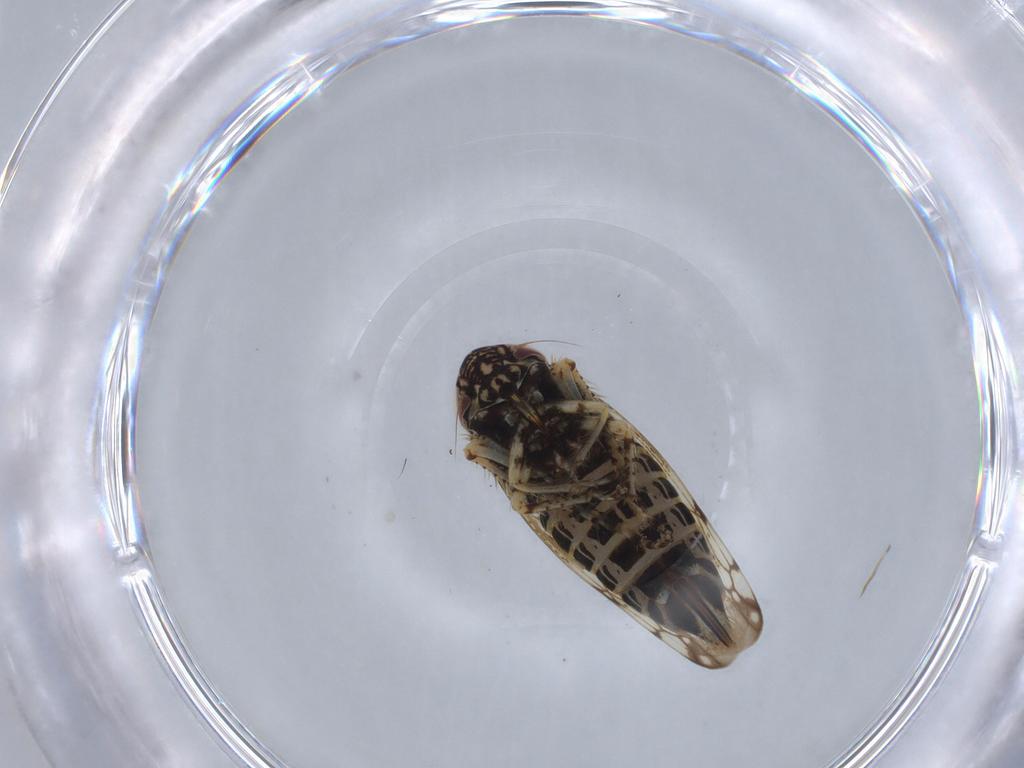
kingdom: Animalia
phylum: Arthropoda
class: Insecta
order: Hemiptera
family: Cicadellidae
